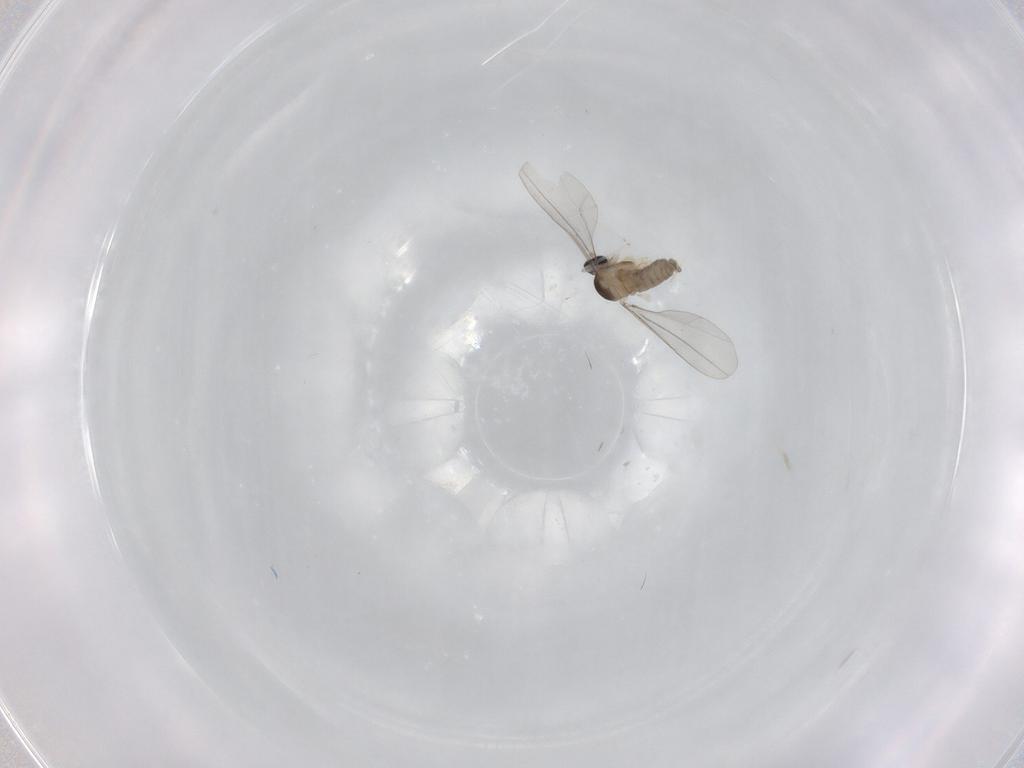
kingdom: Animalia
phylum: Arthropoda
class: Insecta
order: Diptera
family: Cecidomyiidae
